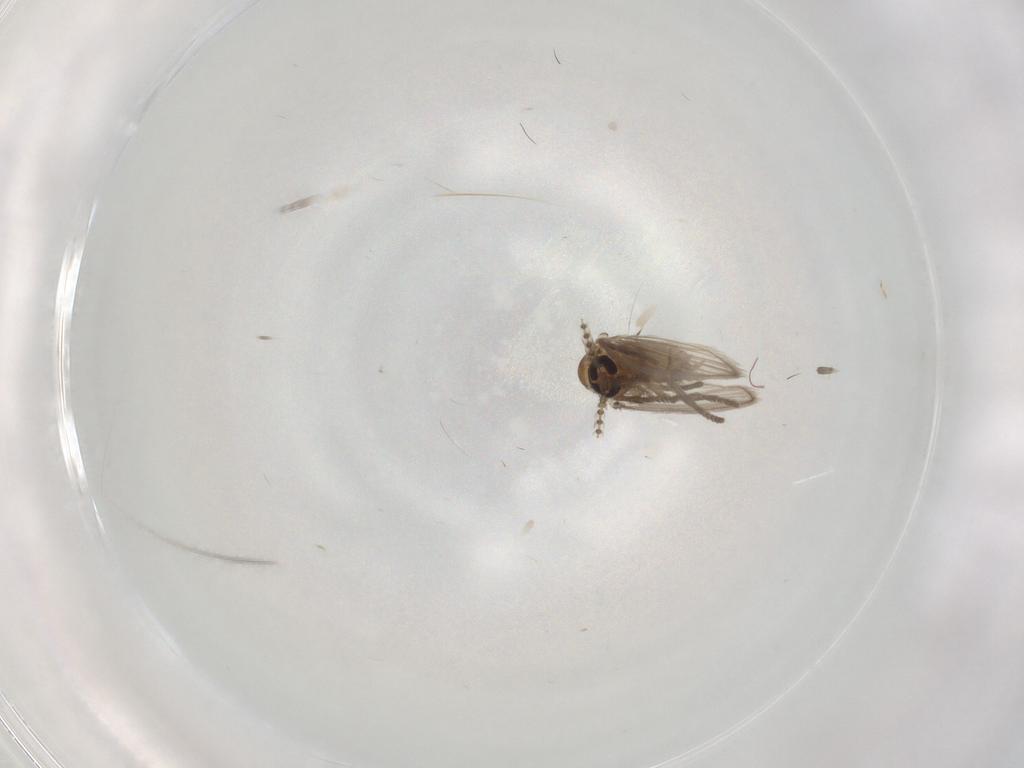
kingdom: Animalia
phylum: Arthropoda
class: Insecta
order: Diptera
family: Psychodidae
